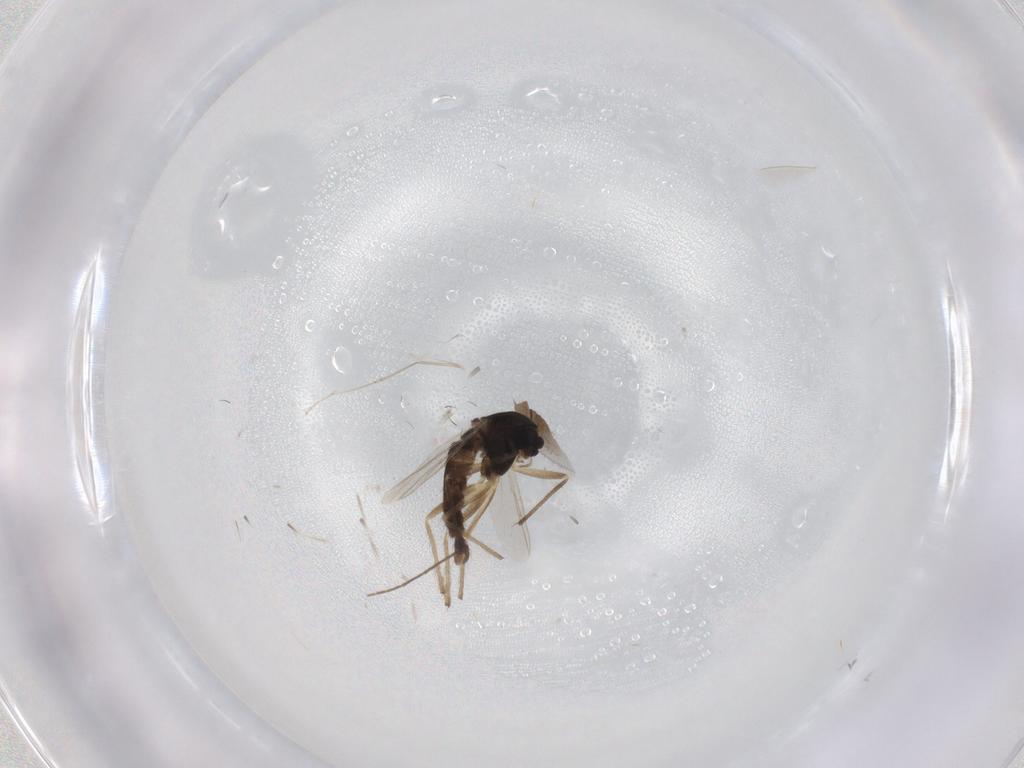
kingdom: Animalia
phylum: Arthropoda
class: Insecta
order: Diptera
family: Chironomidae
